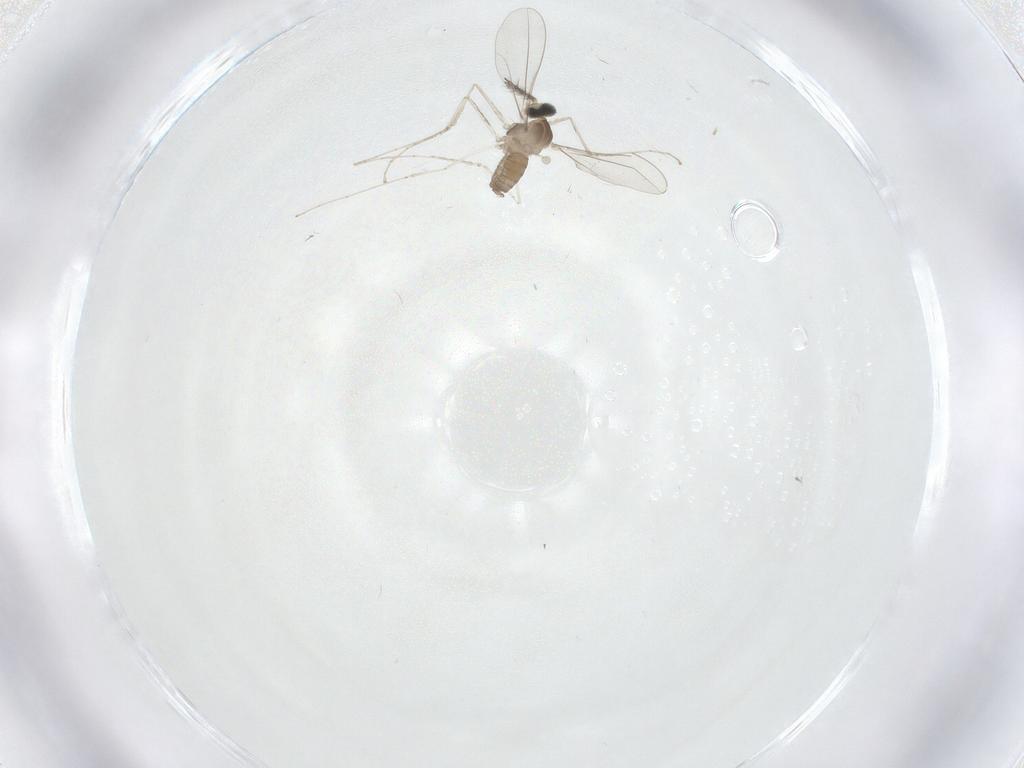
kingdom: Animalia
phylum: Arthropoda
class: Insecta
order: Diptera
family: Cecidomyiidae
